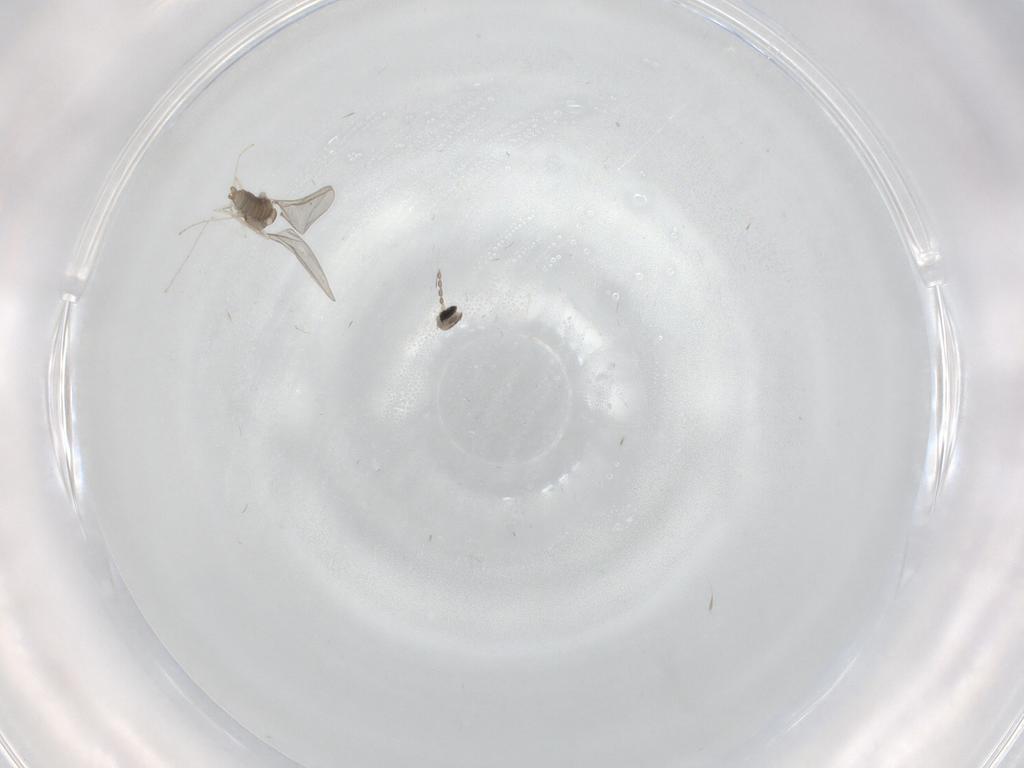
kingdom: Animalia
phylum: Arthropoda
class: Insecta
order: Diptera
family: Cecidomyiidae
